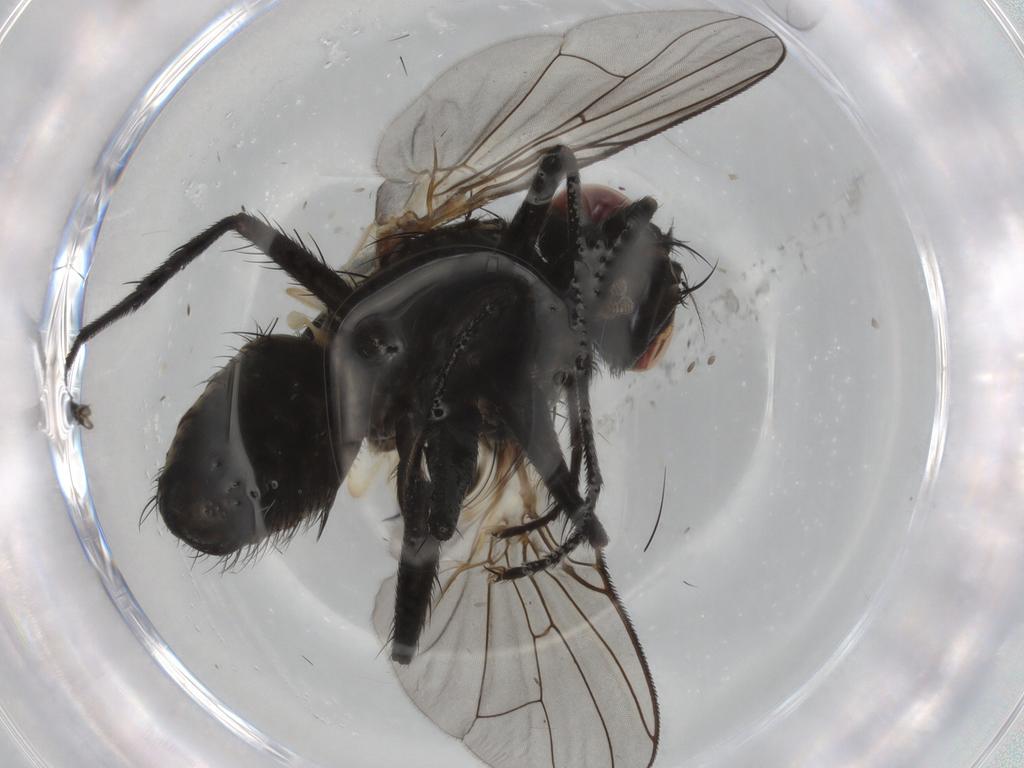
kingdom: Animalia
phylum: Arthropoda
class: Insecta
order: Diptera
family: Muscidae
